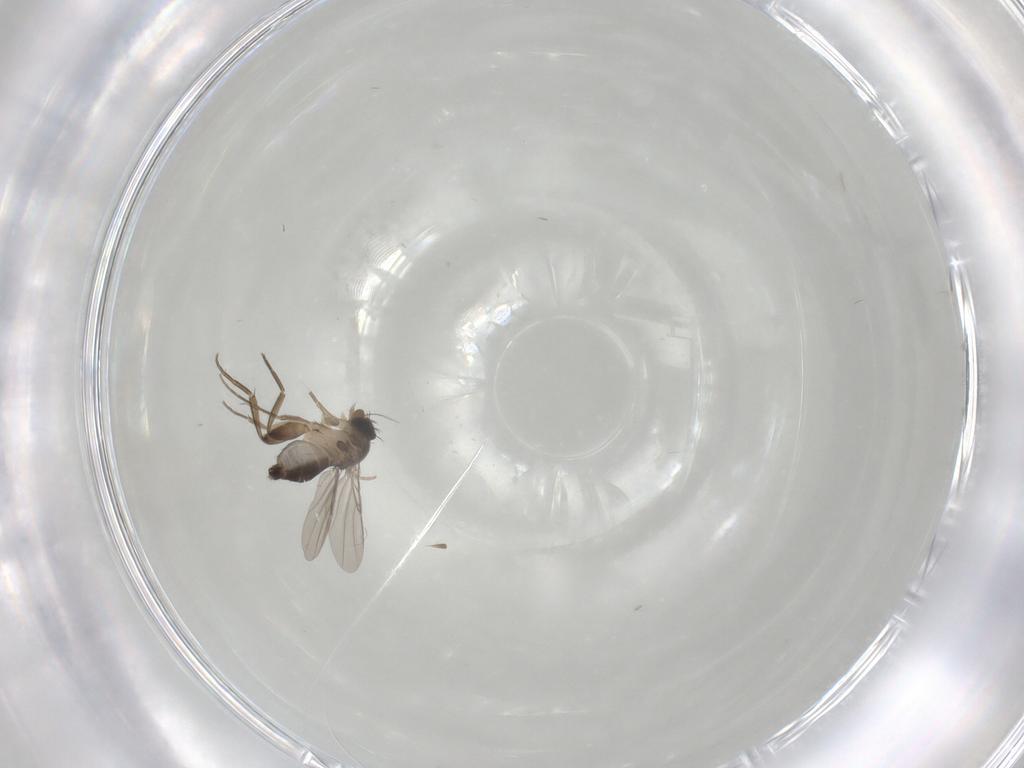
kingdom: Animalia
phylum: Arthropoda
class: Insecta
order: Diptera
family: Phoridae
